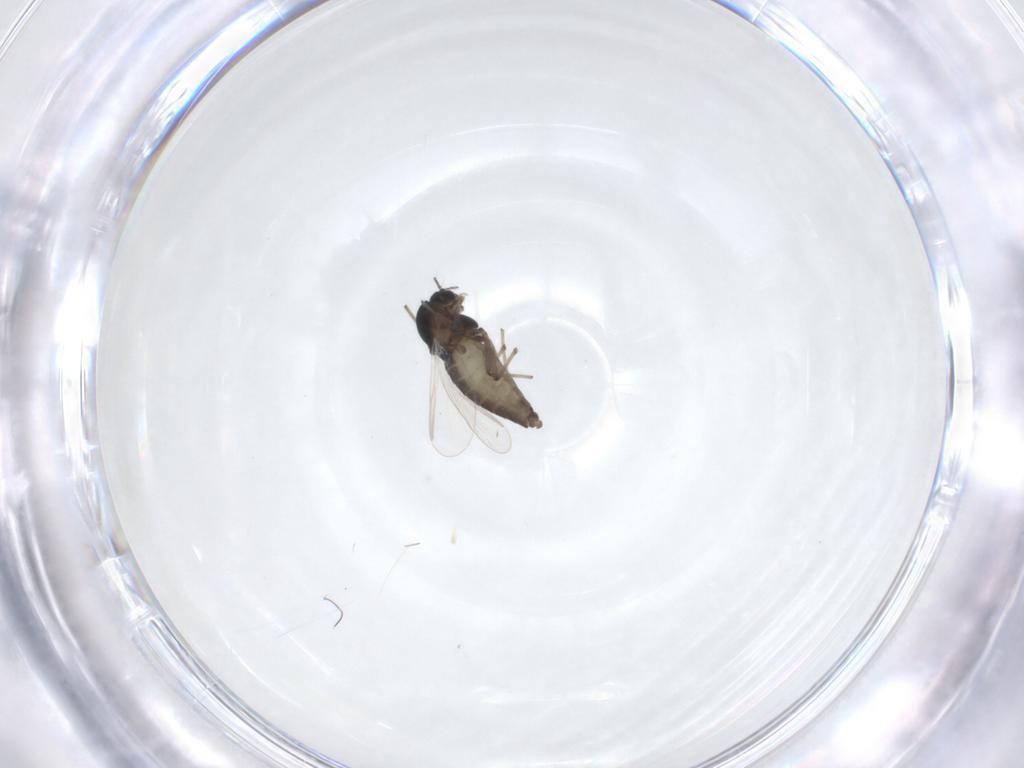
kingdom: Animalia
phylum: Arthropoda
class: Insecta
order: Diptera
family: Chironomidae
